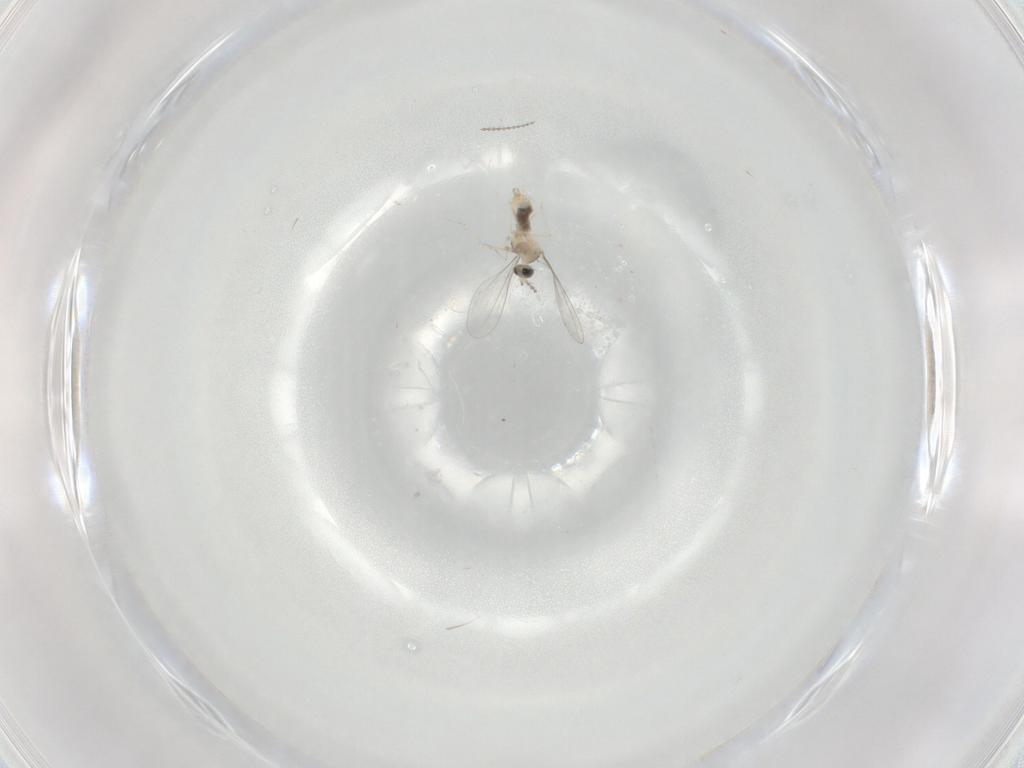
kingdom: Animalia
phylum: Arthropoda
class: Insecta
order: Diptera
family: Cecidomyiidae
